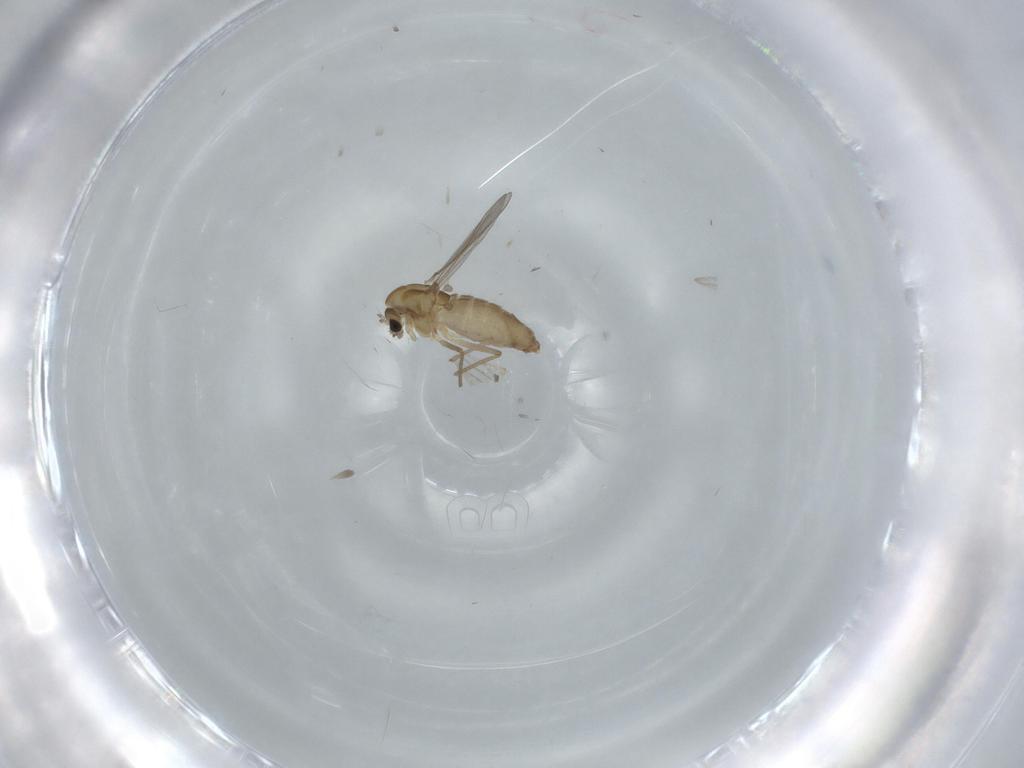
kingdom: Animalia
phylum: Arthropoda
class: Insecta
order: Diptera
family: Chironomidae
